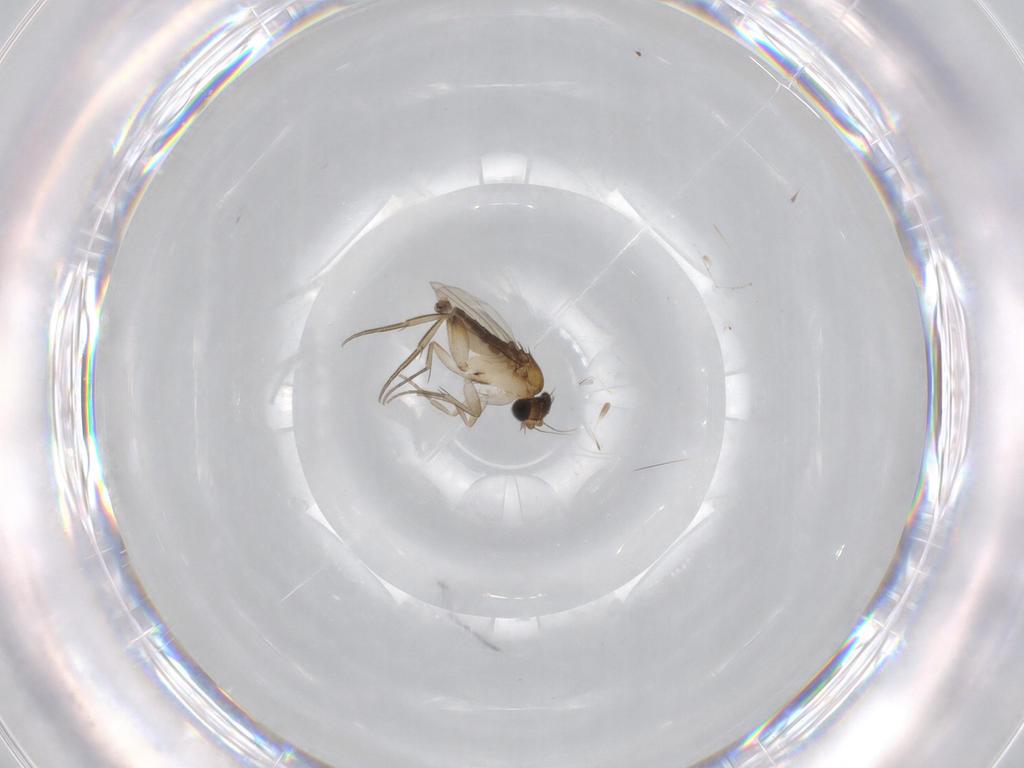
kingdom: Animalia
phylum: Arthropoda
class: Insecta
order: Diptera
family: Phoridae
